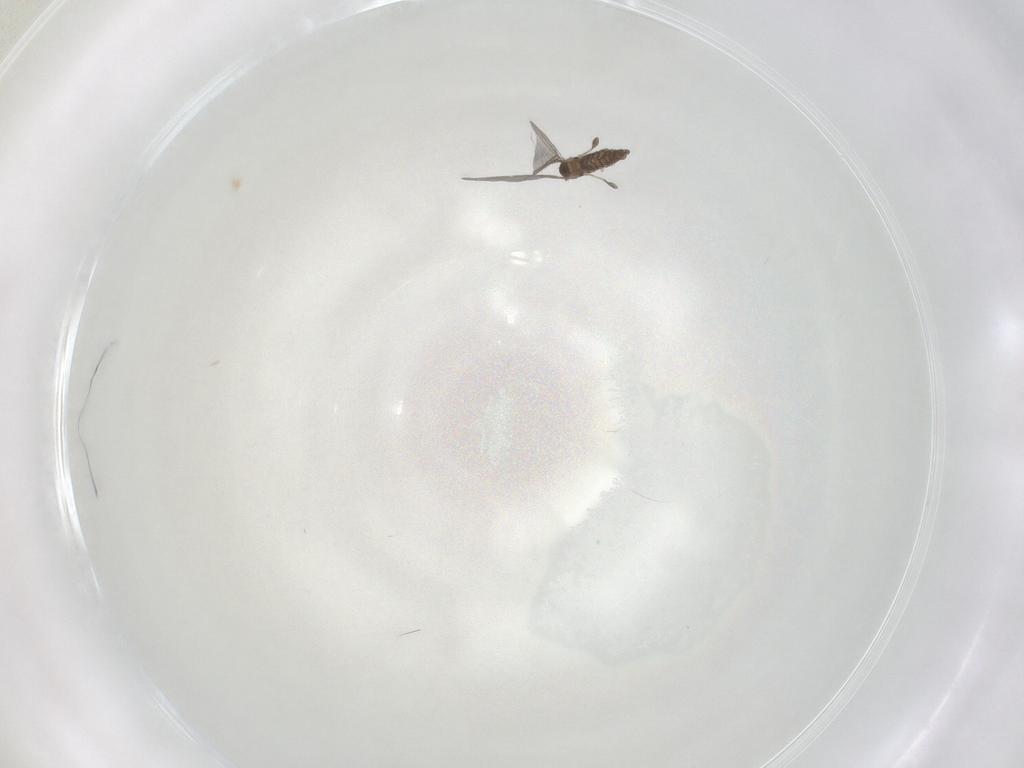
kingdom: Animalia
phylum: Arthropoda
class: Insecta
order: Diptera
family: Sciaridae
